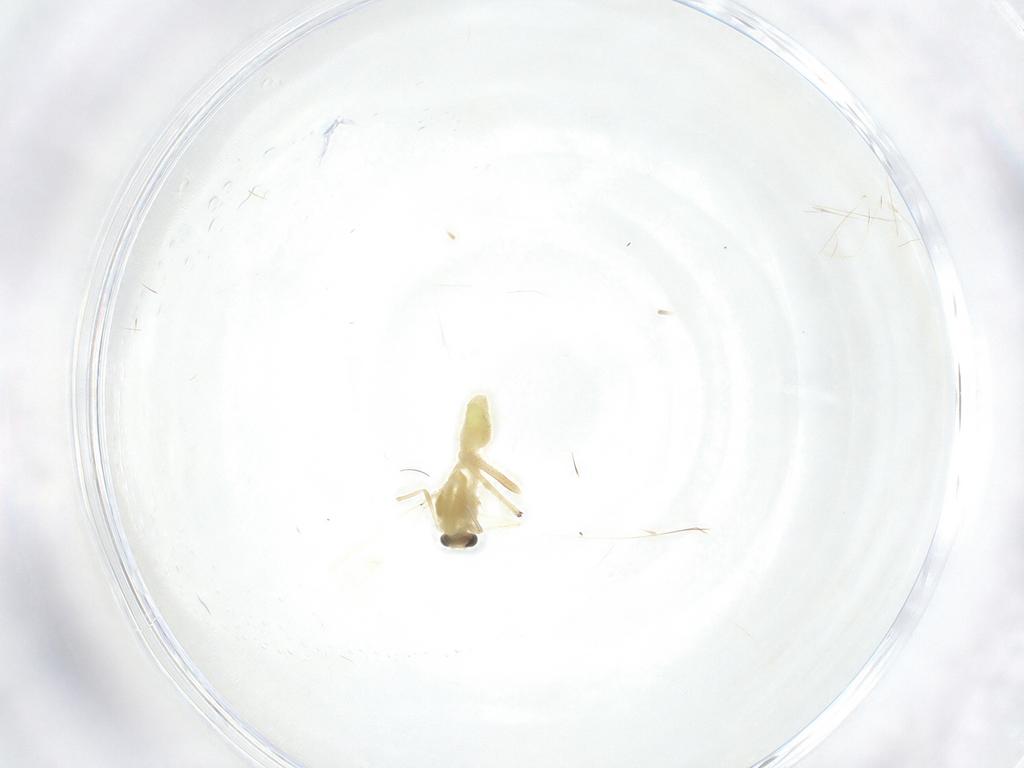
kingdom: Animalia
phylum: Arthropoda
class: Insecta
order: Diptera
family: Chironomidae
